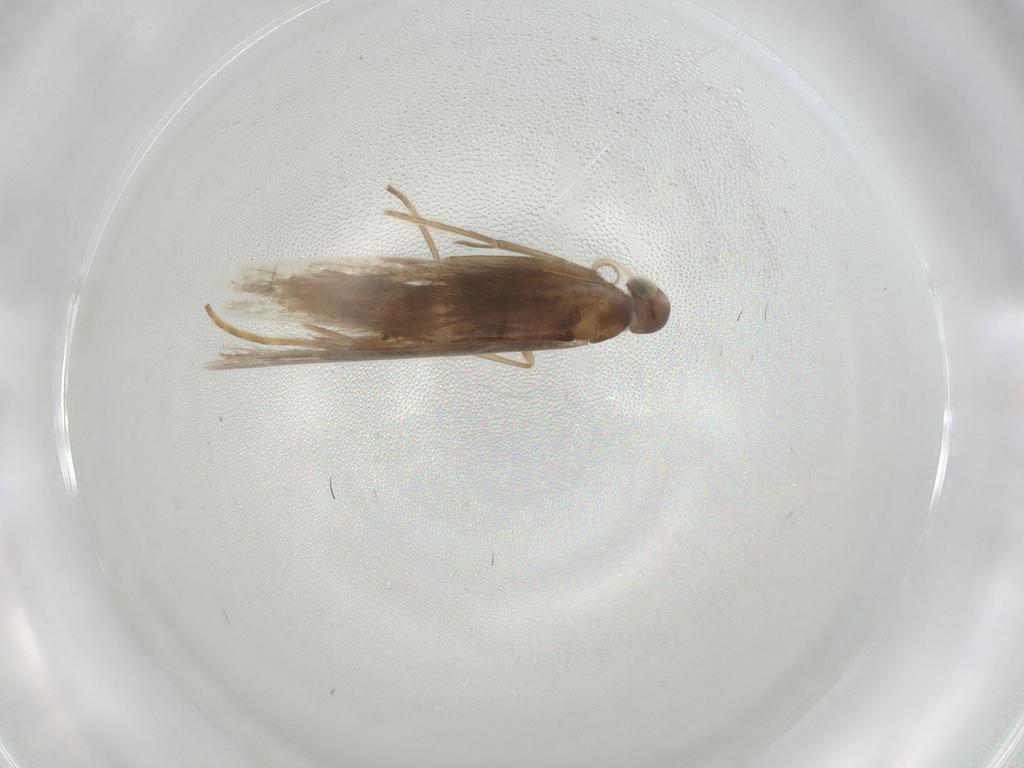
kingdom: Animalia
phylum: Arthropoda
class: Insecta
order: Lepidoptera
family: Coleophoridae
